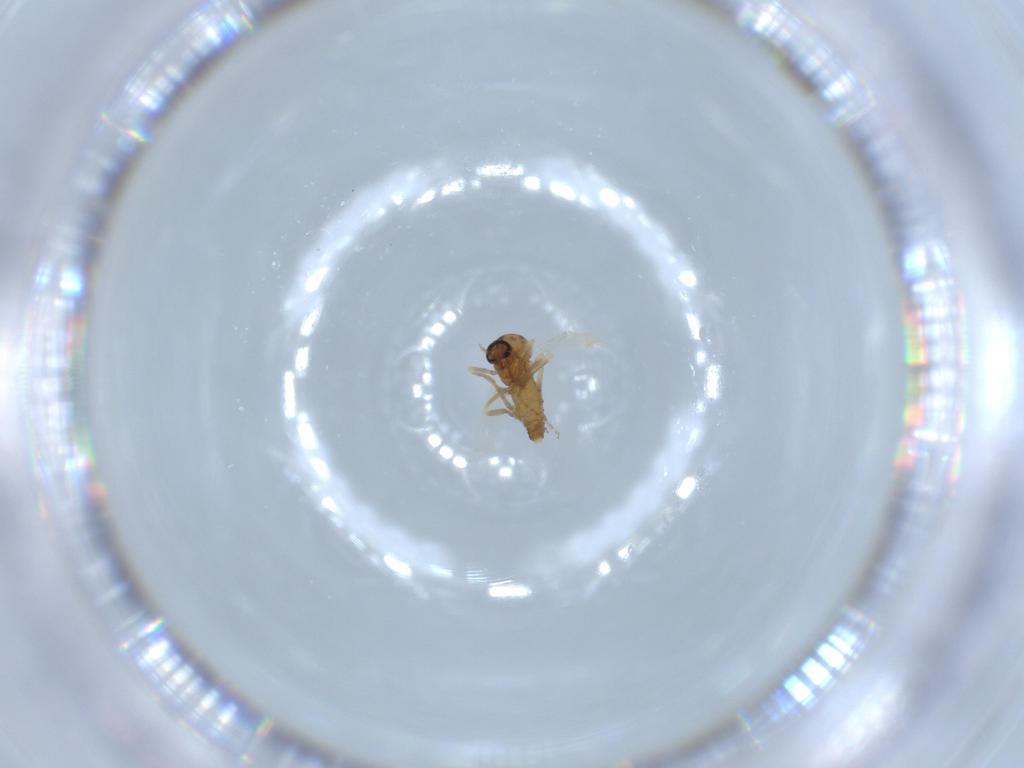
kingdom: Animalia
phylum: Arthropoda
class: Insecta
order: Diptera
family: Ceratopogonidae
